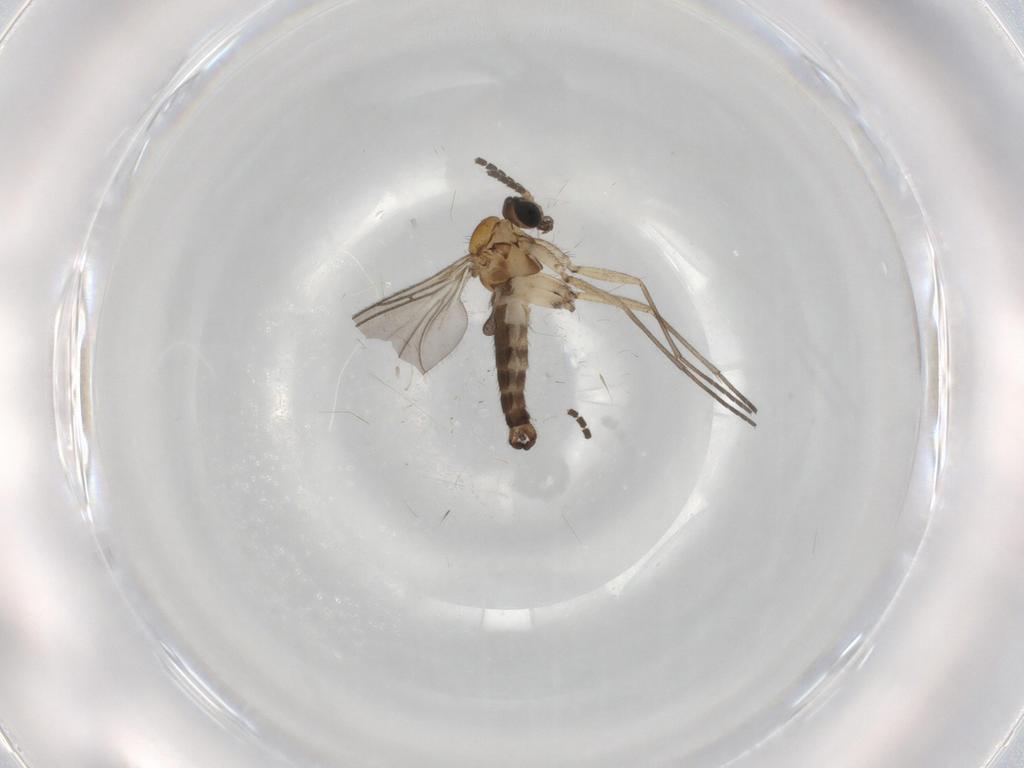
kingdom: Animalia
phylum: Arthropoda
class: Insecta
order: Diptera
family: Sciaridae
